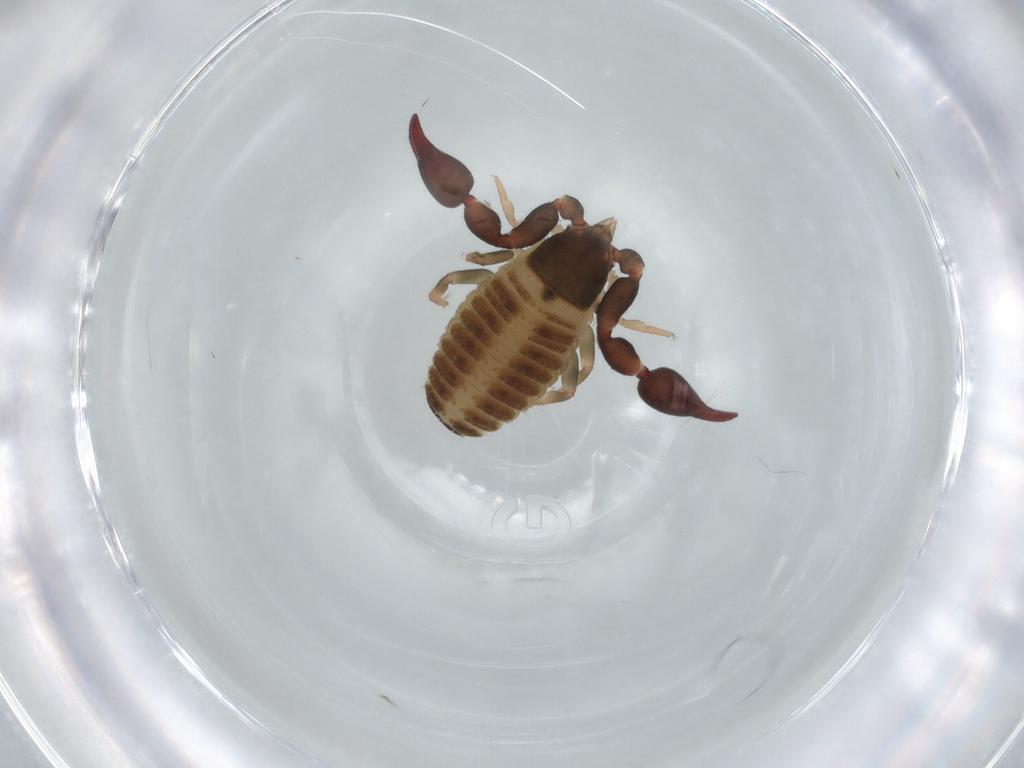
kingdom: Animalia
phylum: Arthropoda
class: Arachnida
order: Pseudoscorpiones
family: Chernetidae
